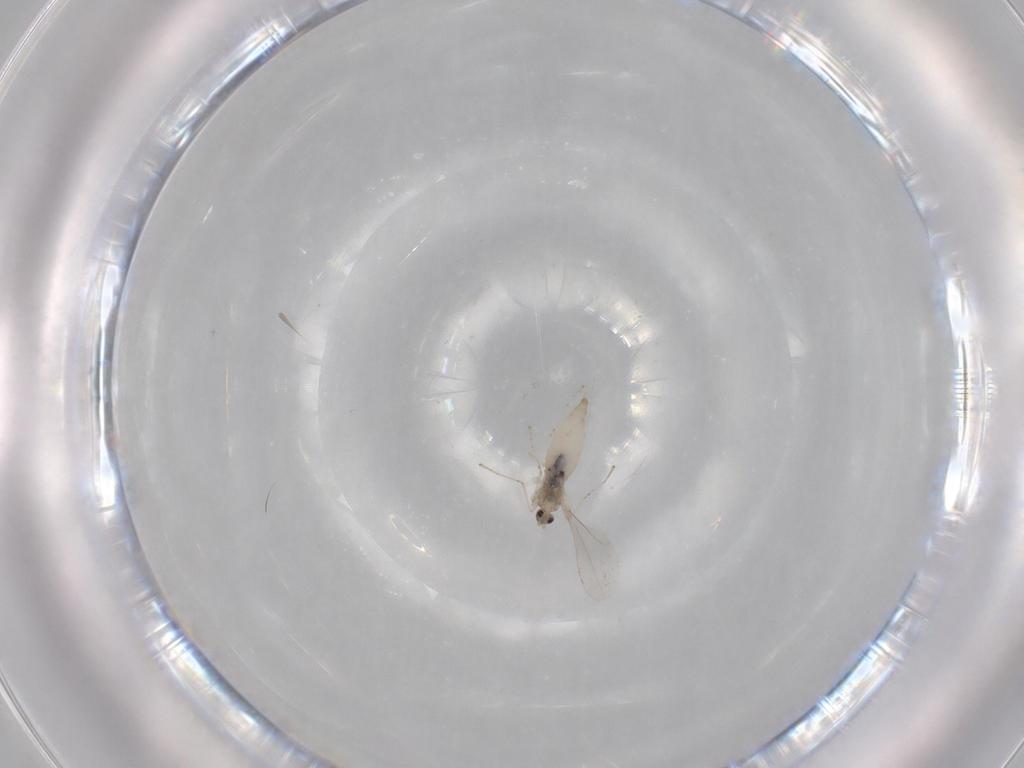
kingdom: Animalia
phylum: Arthropoda
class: Insecta
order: Diptera
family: Cecidomyiidae
